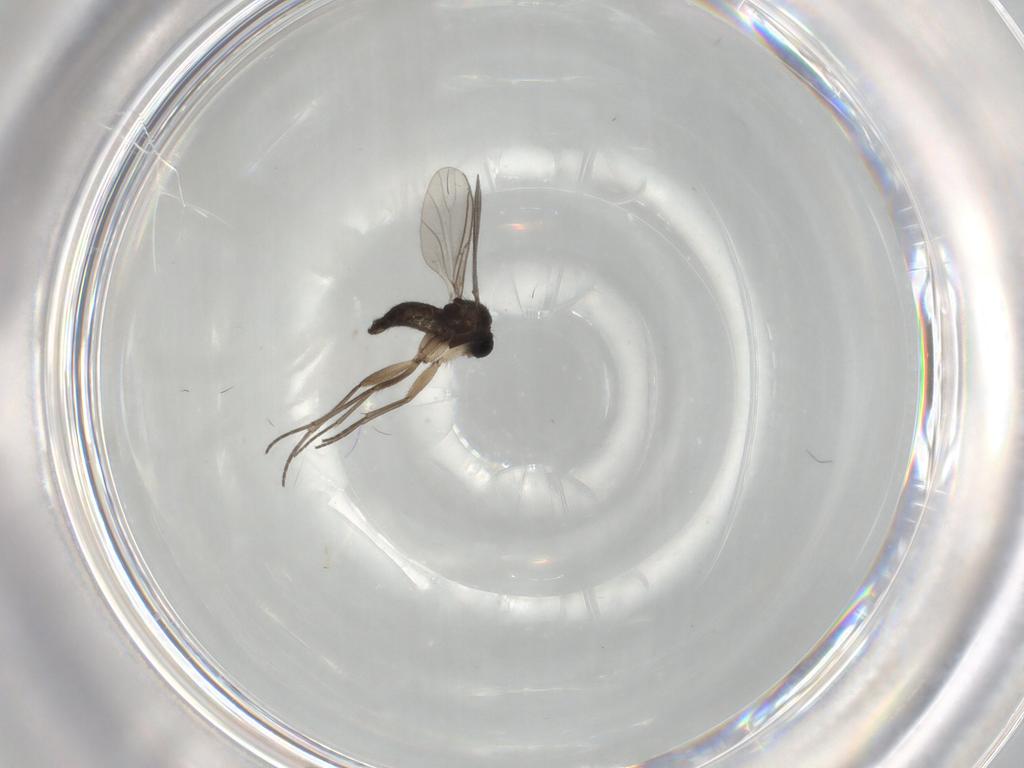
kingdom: Animalia
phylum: Arthropoda
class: Insecta
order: Diptera
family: Sciaridae
